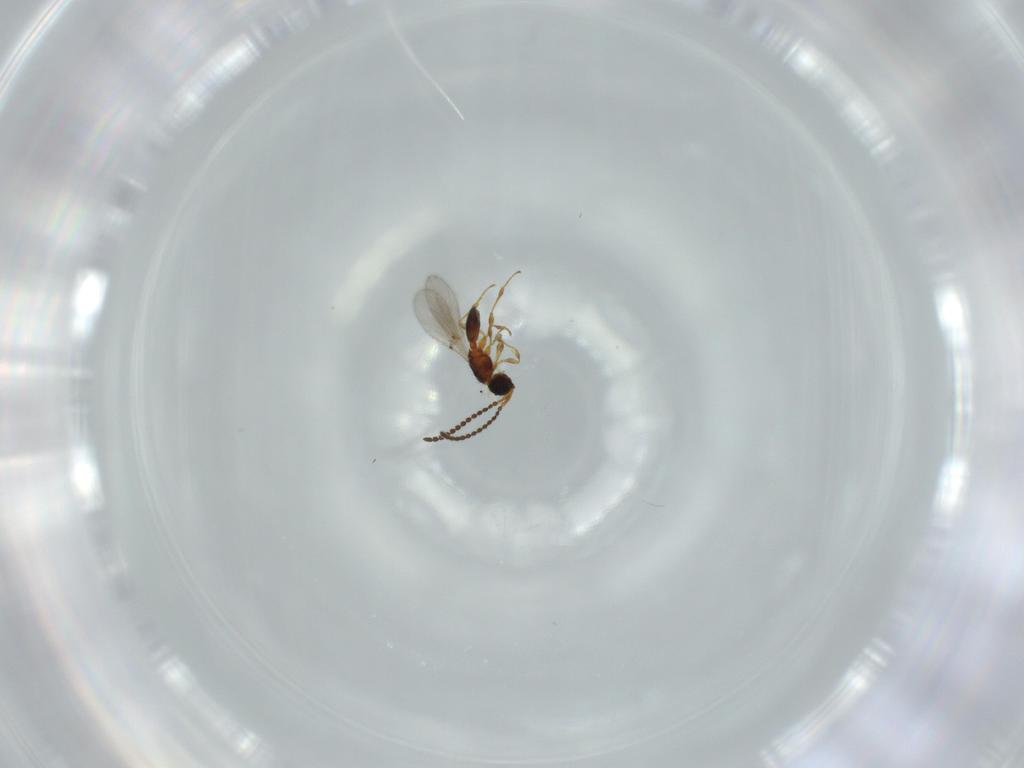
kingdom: Animalia
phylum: Arthropoda
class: Insecta
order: Hymenoptera
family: Diapriidae
